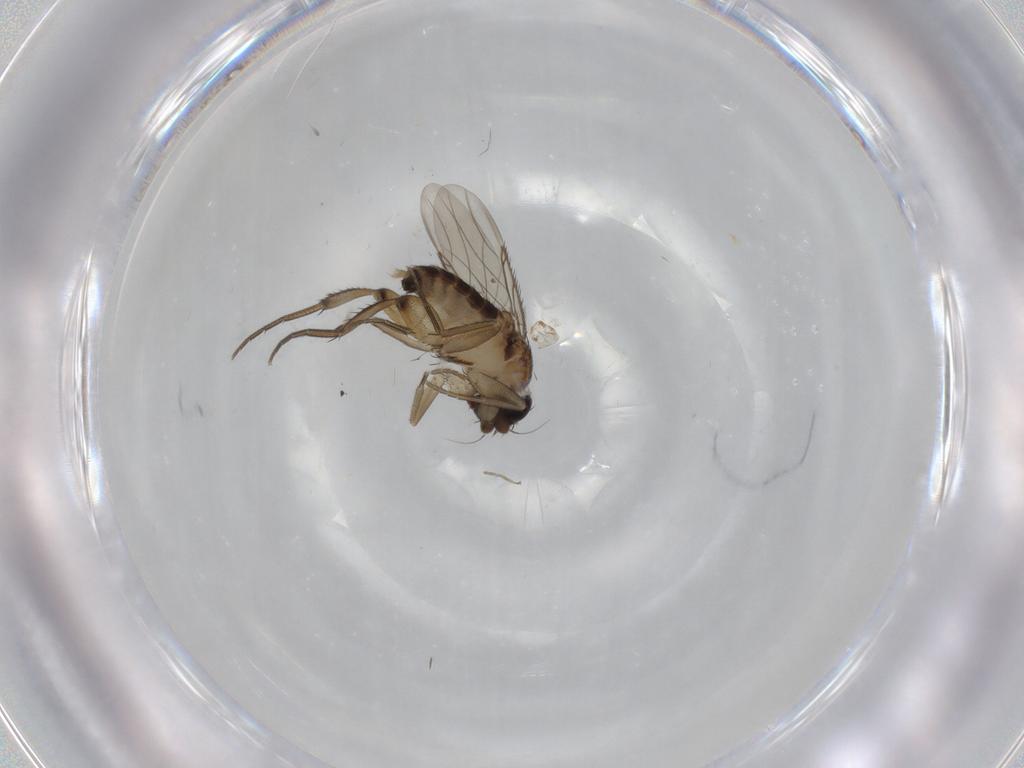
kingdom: Animalia
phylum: Arthropoda
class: Insecta
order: Diptera
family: Phoridae
